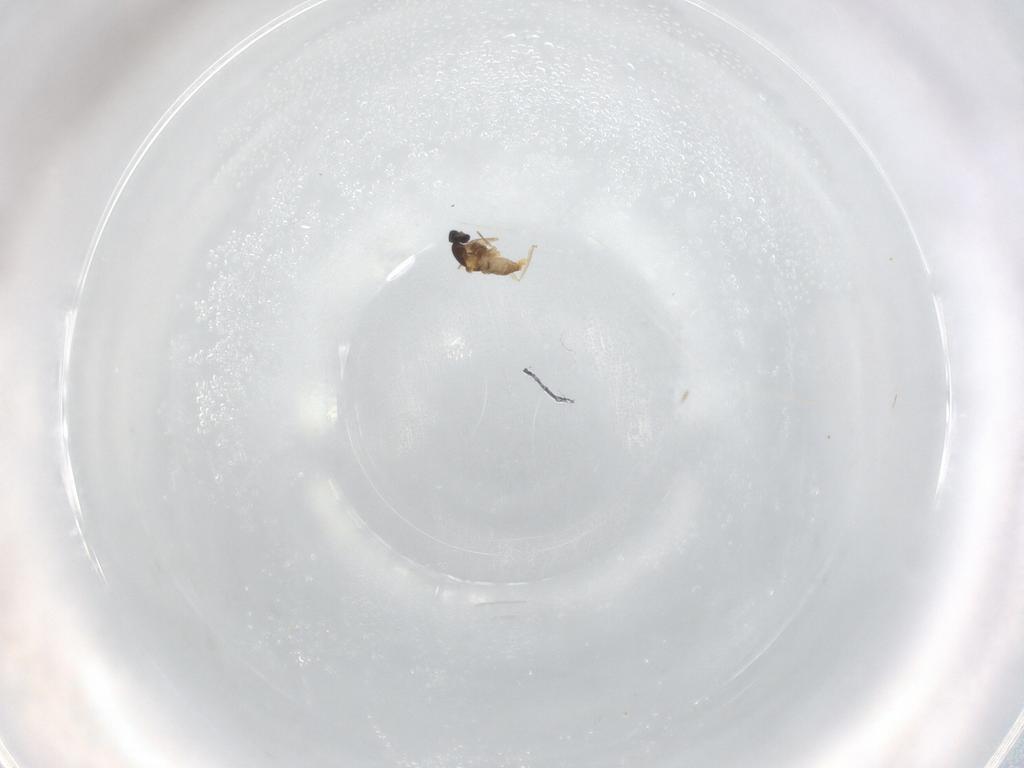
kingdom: Animalia
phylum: Arthropoda
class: Insecta
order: Diptera
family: Cecidomyiidae
